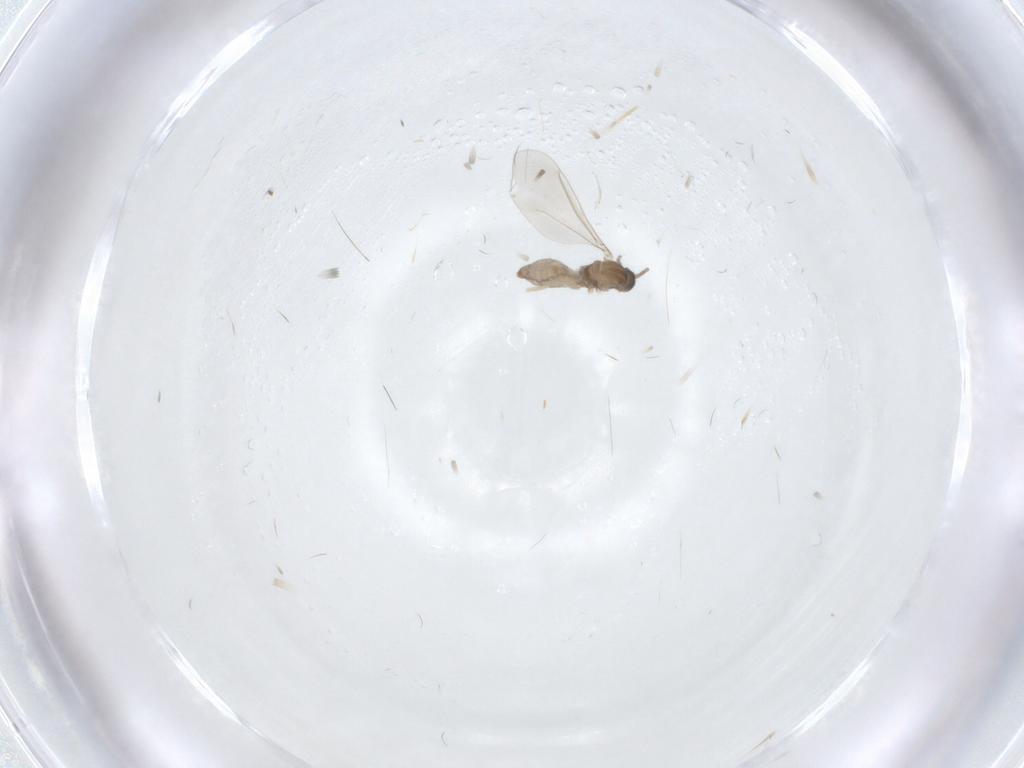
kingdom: Animalia
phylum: Arthropoda
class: Insecta
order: Diptera
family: Cecidomyiidae
